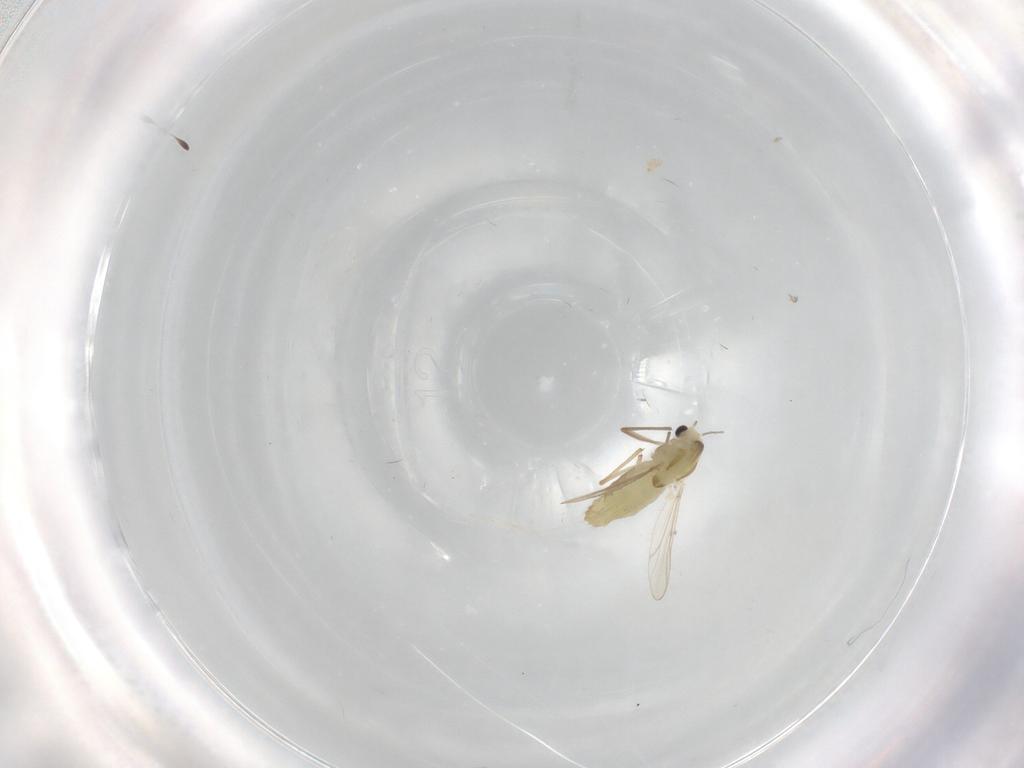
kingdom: Animalia
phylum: Arthropoda
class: Insecta
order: Diptera
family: Chironomidae
